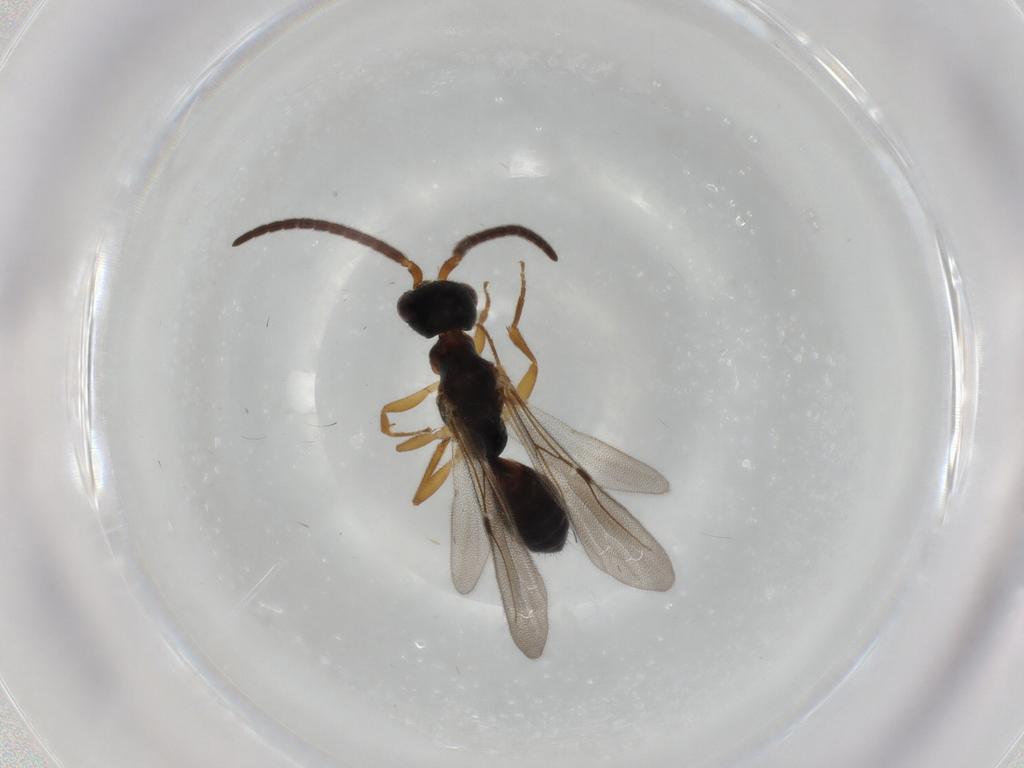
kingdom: Animalia
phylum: Arthropoda
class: Insecta
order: Hymenoptera
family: Bethylidae
